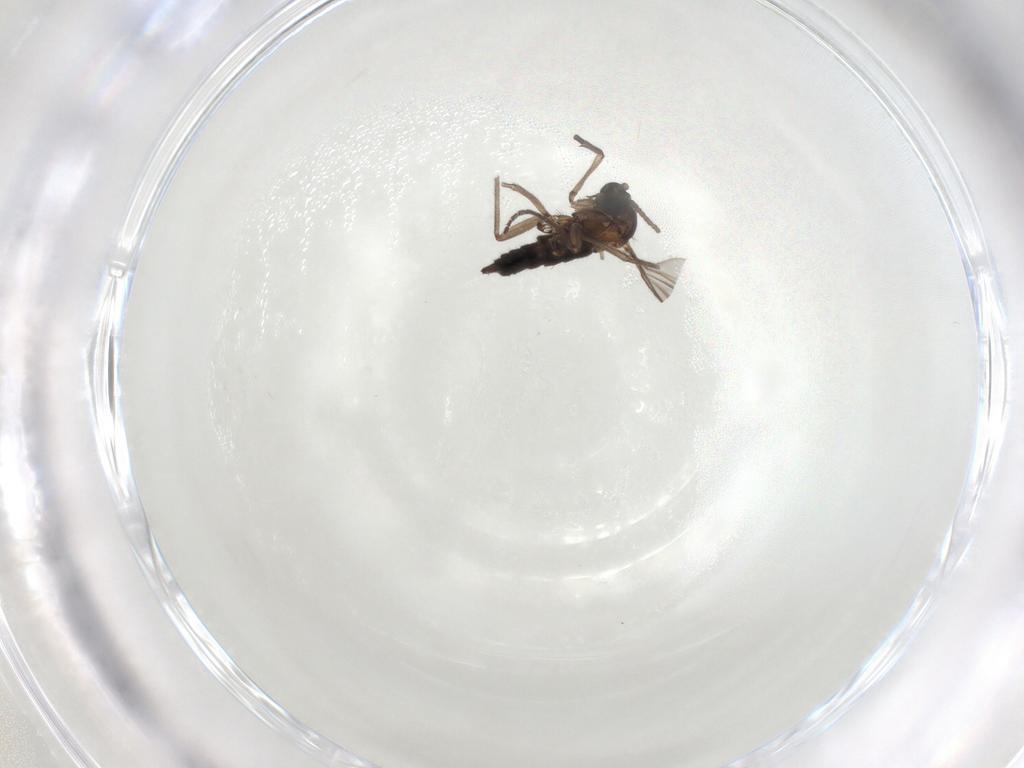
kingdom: Animalia
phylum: Arthropoda
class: Insecta
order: Diptera
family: Sciaridae
